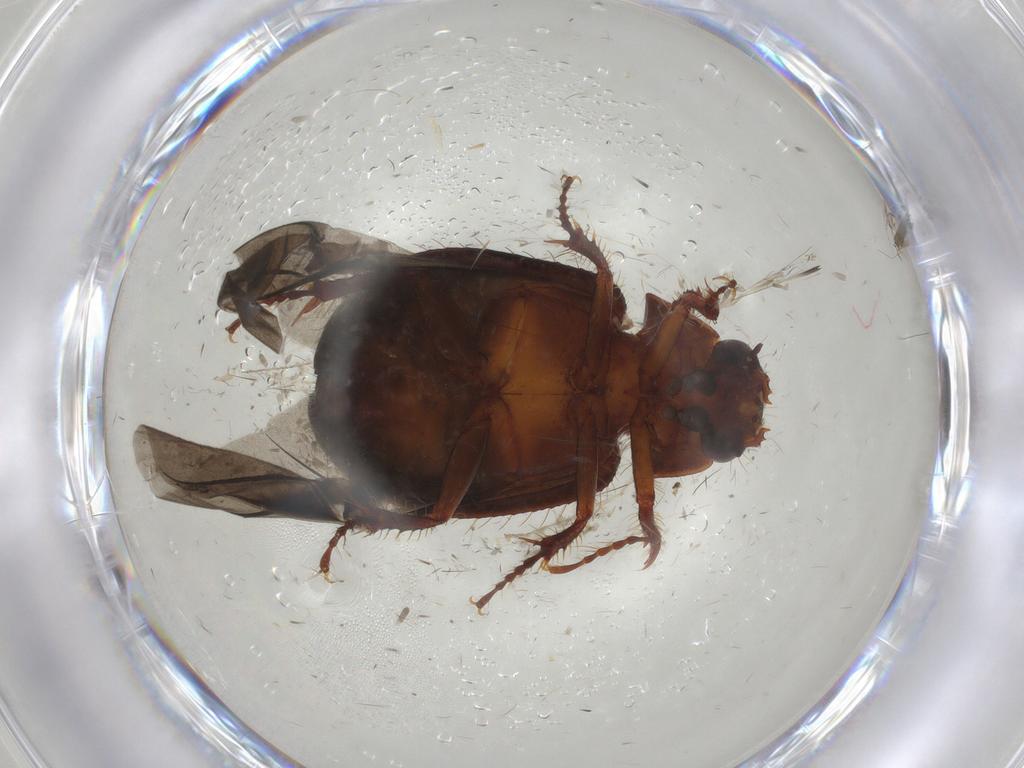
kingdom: Animalia
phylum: Arthropoda
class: Insecta
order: Coleoptera
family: Hybosoridae
